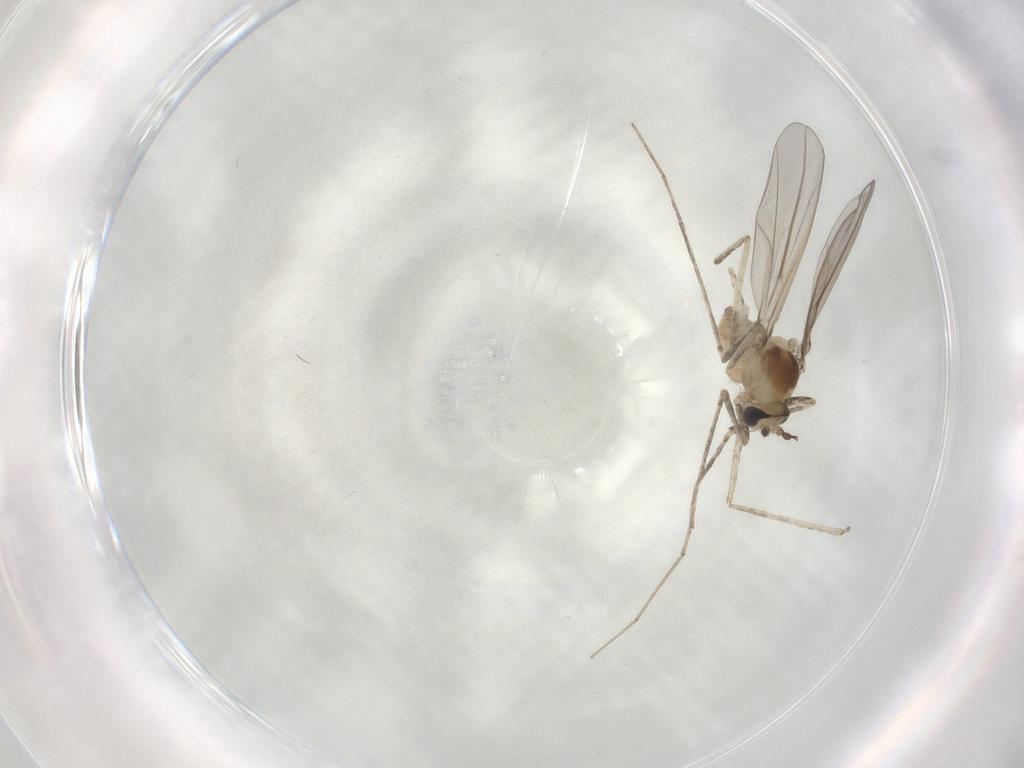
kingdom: Animalia
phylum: Arthropoda
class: Insecta
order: Diptera
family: Cecidomyiidae
